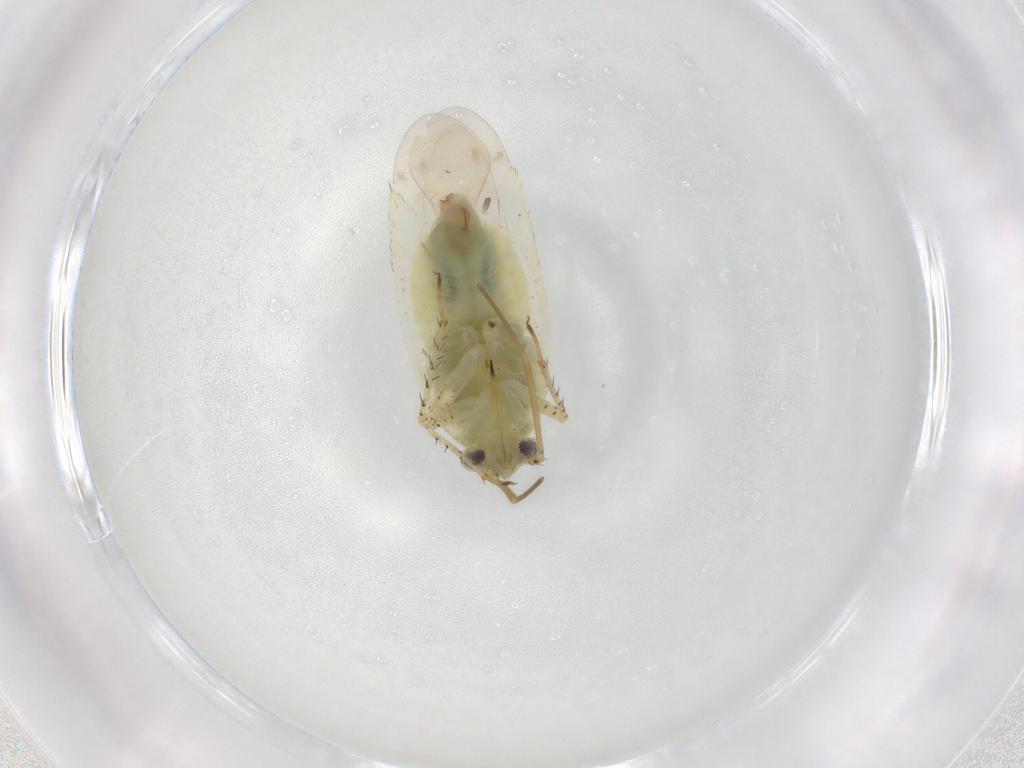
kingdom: Animalia
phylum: Arthropoda
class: Insecta
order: Hemiptera
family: Miridae
